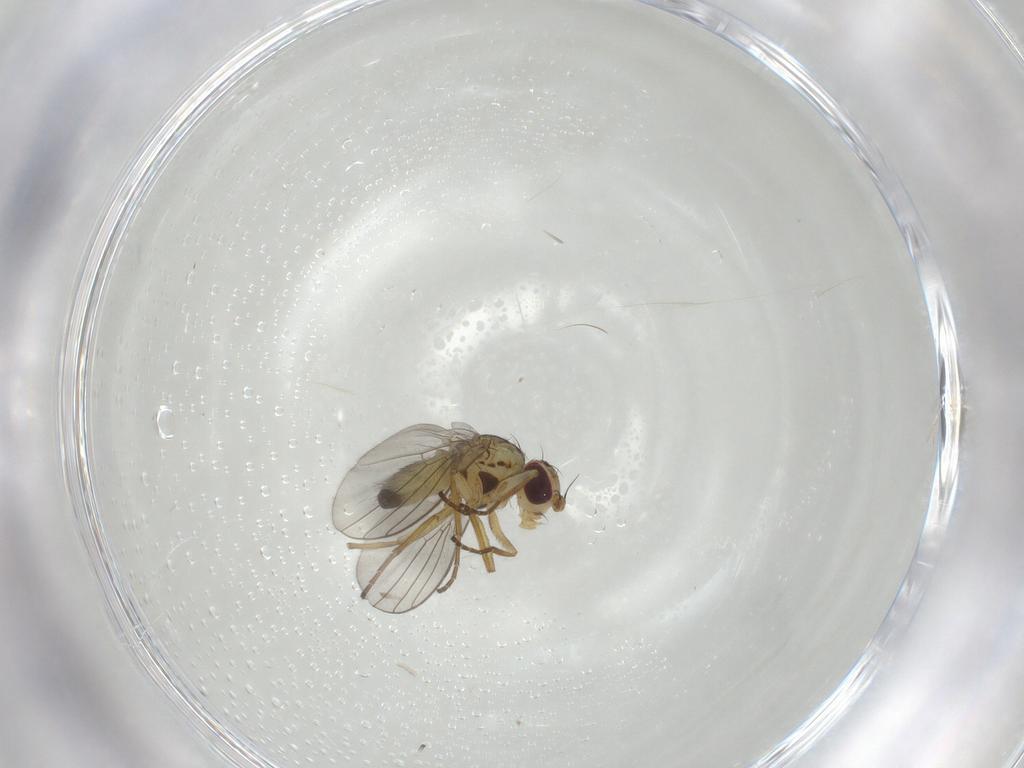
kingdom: Animalia
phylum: Arthropoda
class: Insecta
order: Diptera
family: Agromyzidae
